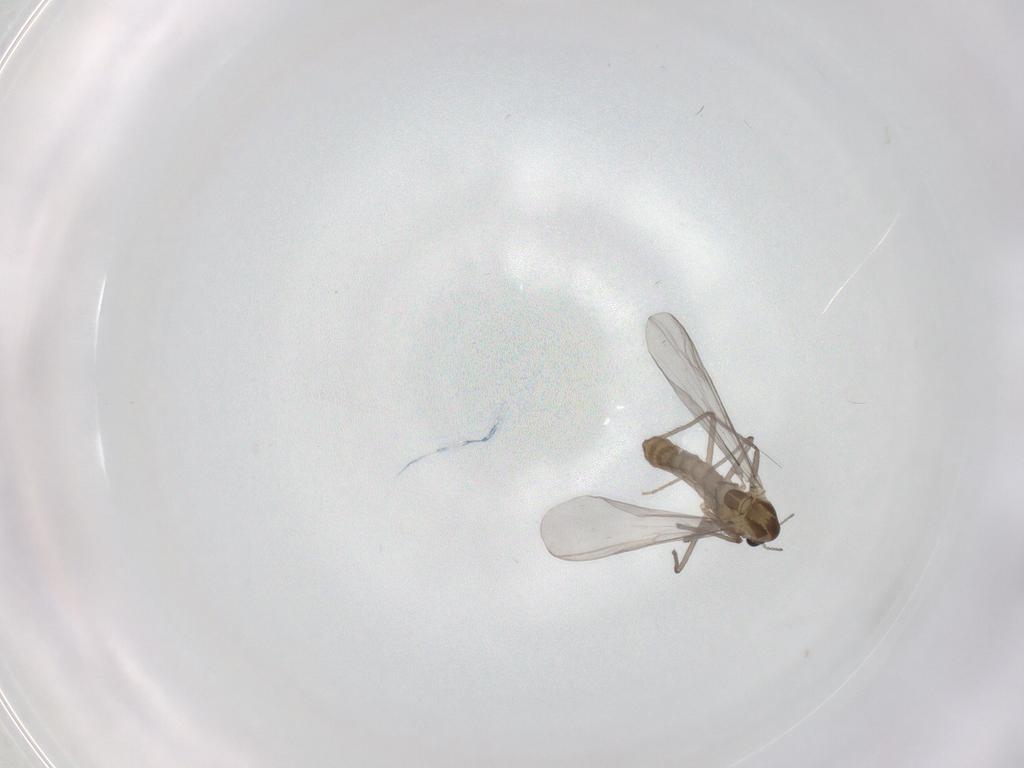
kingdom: Animalia
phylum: Arthropoda
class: Insecta
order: Diptera
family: Chironomidae
